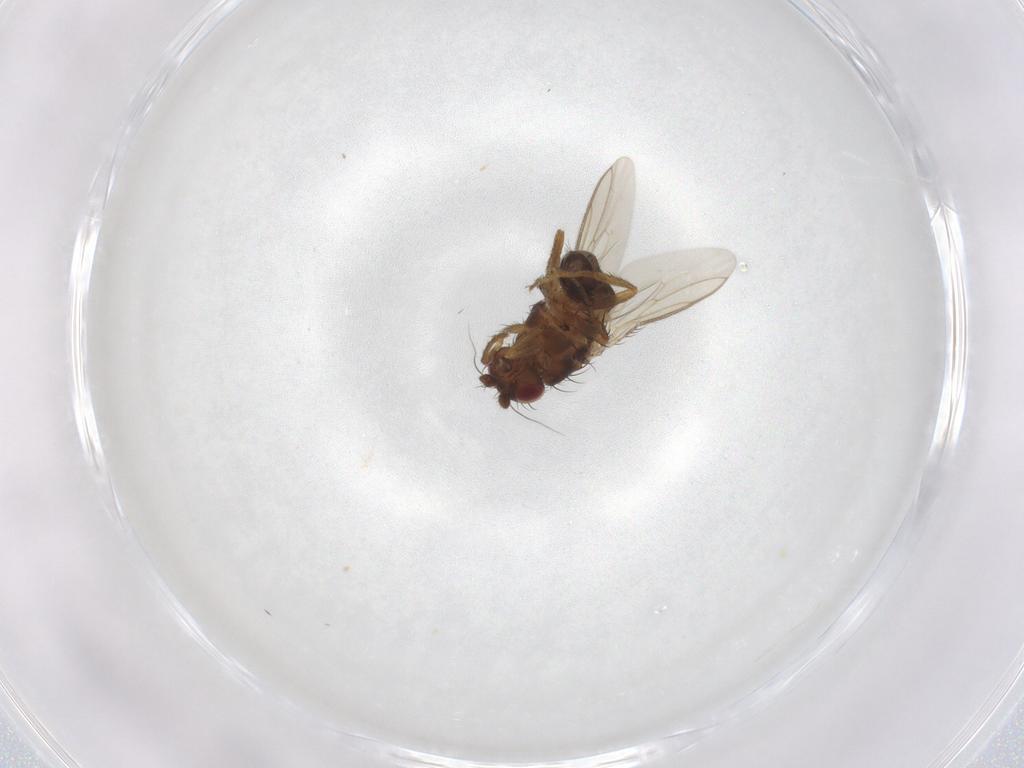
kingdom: Animalia
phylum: Arthropoda
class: Insecta
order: Diptera
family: Sphaeroceridae
